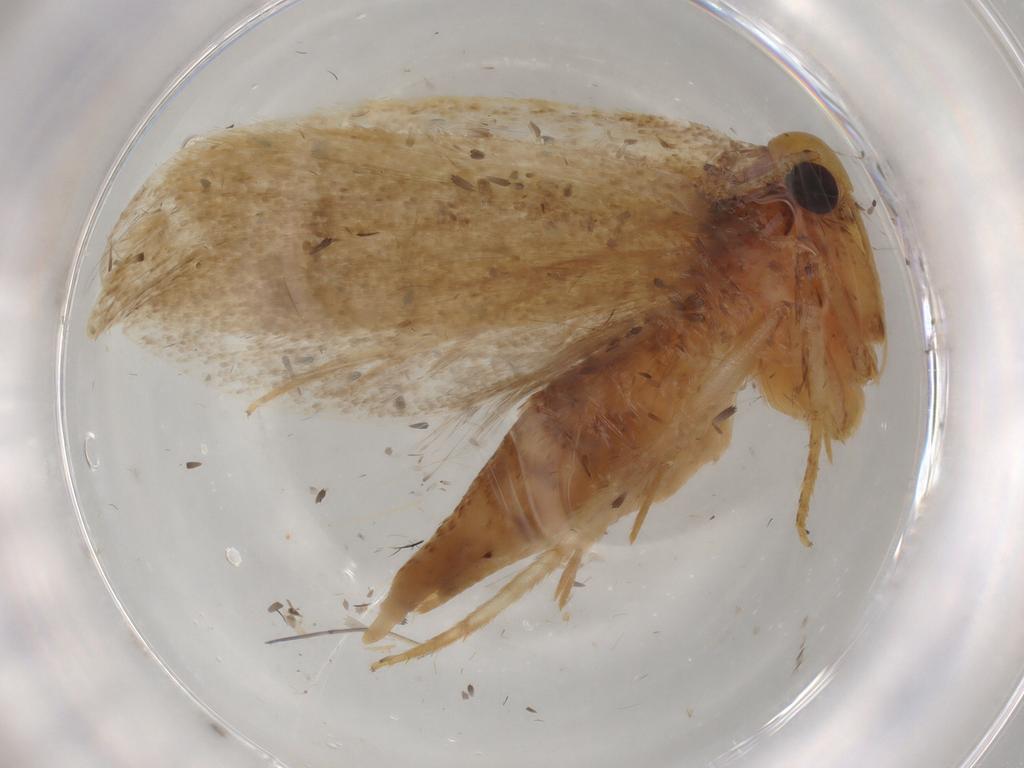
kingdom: Animalia
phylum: Arthropoda
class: Insecta
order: Lepidoptera
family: Depressariidae
